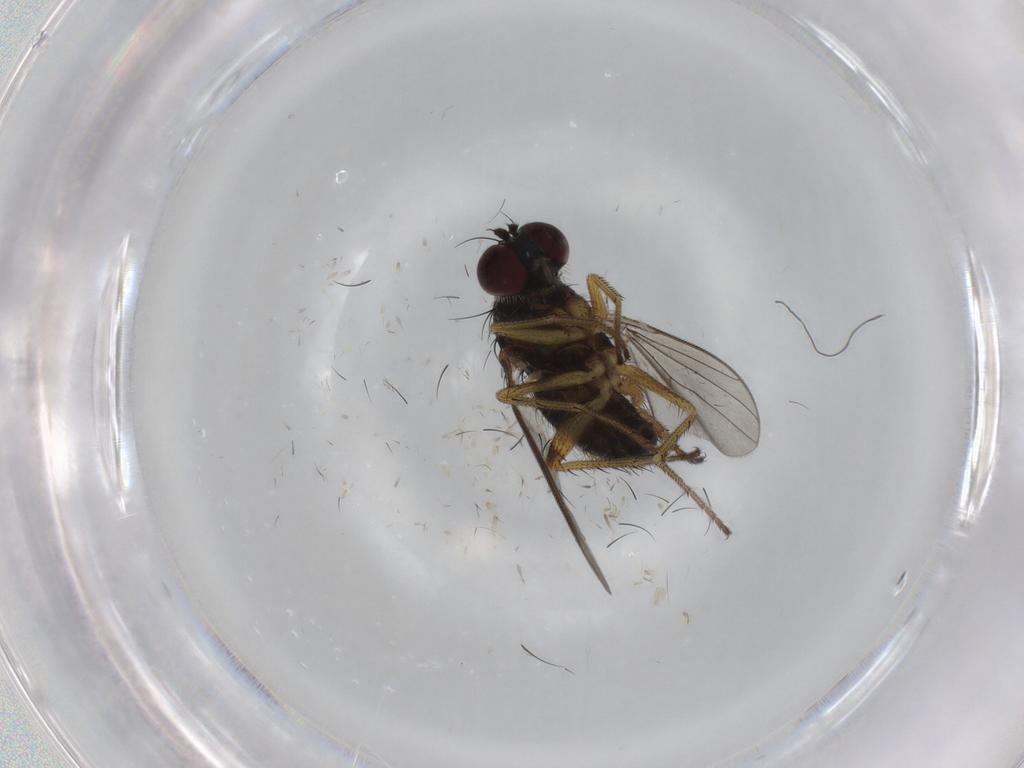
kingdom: Animalia
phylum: Arthropoda
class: Insecta
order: Diptera
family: Dolichopodidae
